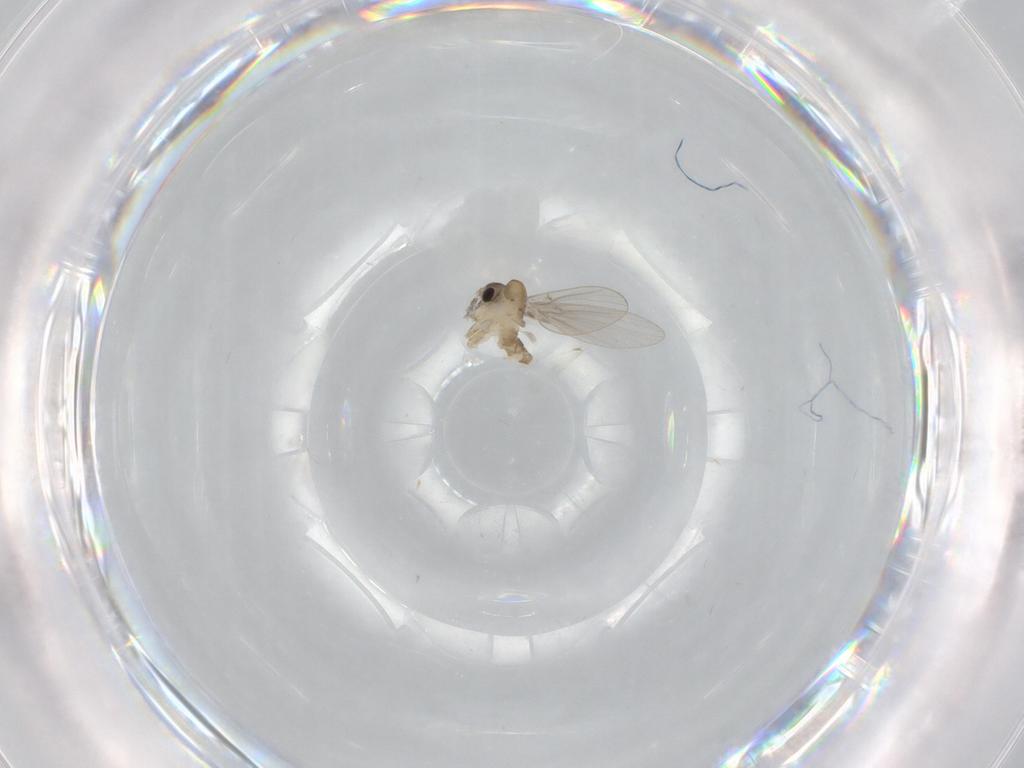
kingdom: Animalia
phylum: Arthropoda
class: Insecta
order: Diptera
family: Psychodidae
